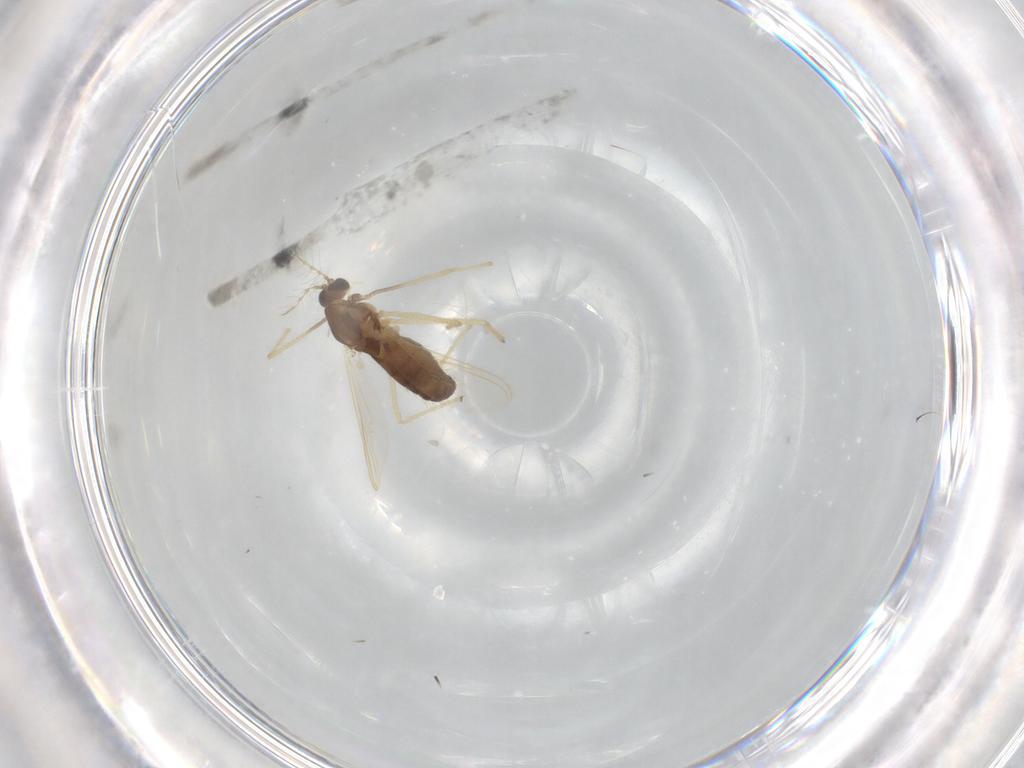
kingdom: Animalia
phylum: Arthropoda
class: Insecta
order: Diptera
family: Chironomidae
